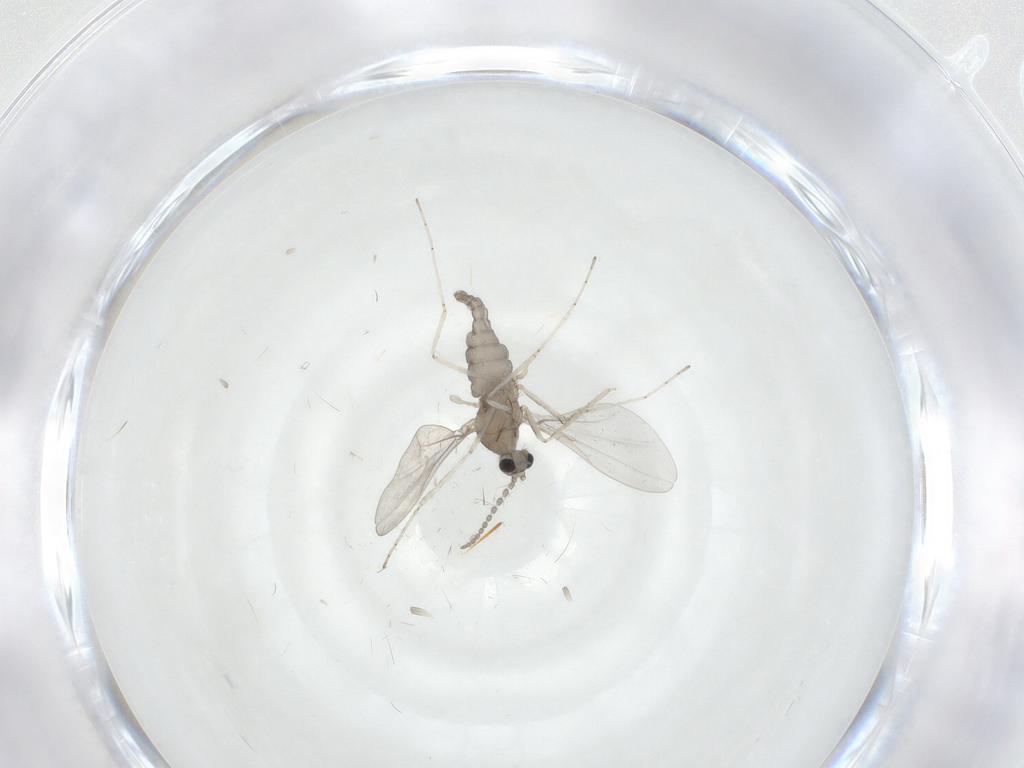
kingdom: Animalia
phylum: Arthropoda
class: Insecta
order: Diptera
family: Cecidomyiidae
